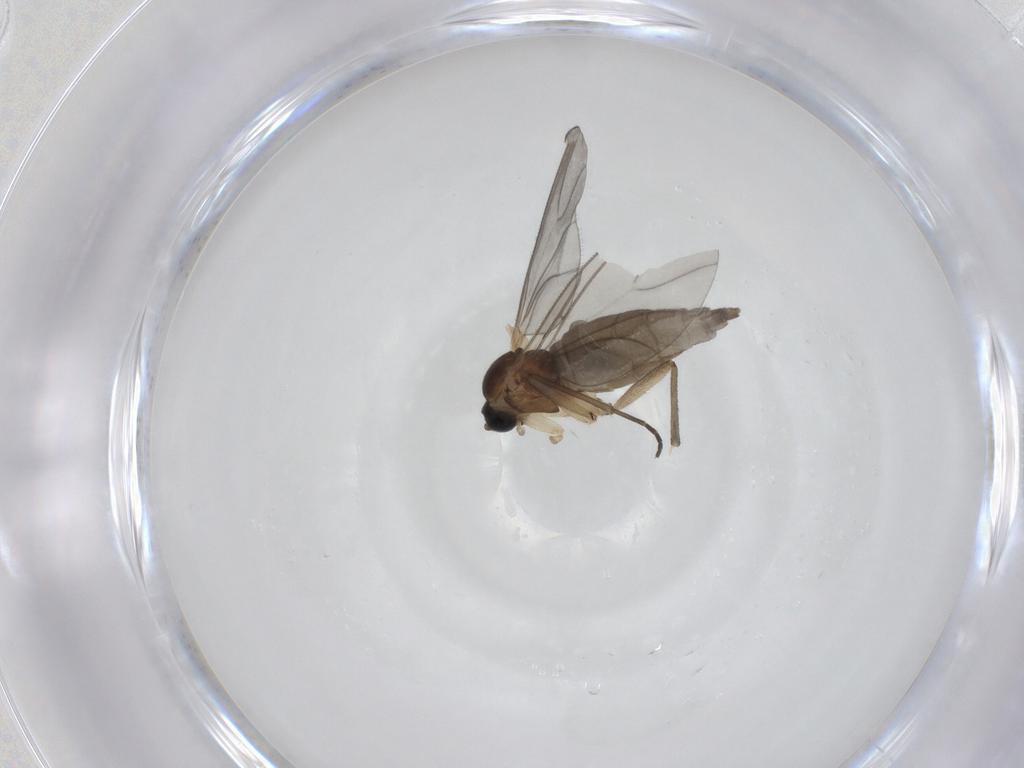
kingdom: Animalia
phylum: Arthropoda
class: Insecta
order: Diptera
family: Sciaridae
